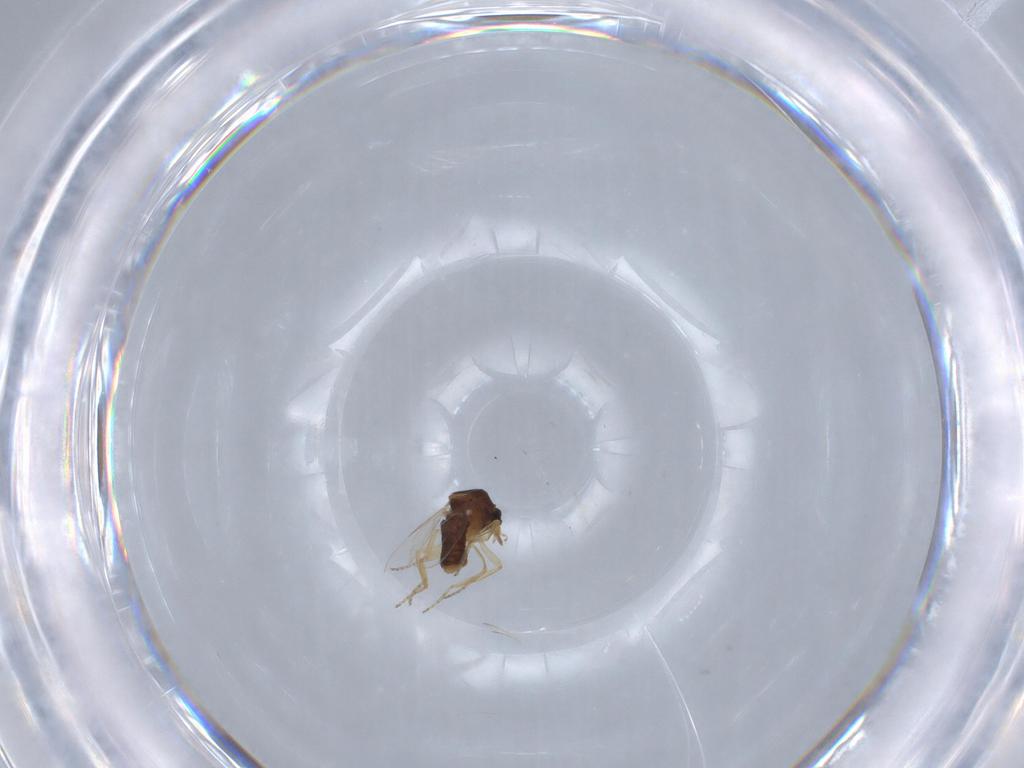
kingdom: Animalia
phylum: Arthropoda
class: Insecta
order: Diptera
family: Ceratopogonidae
